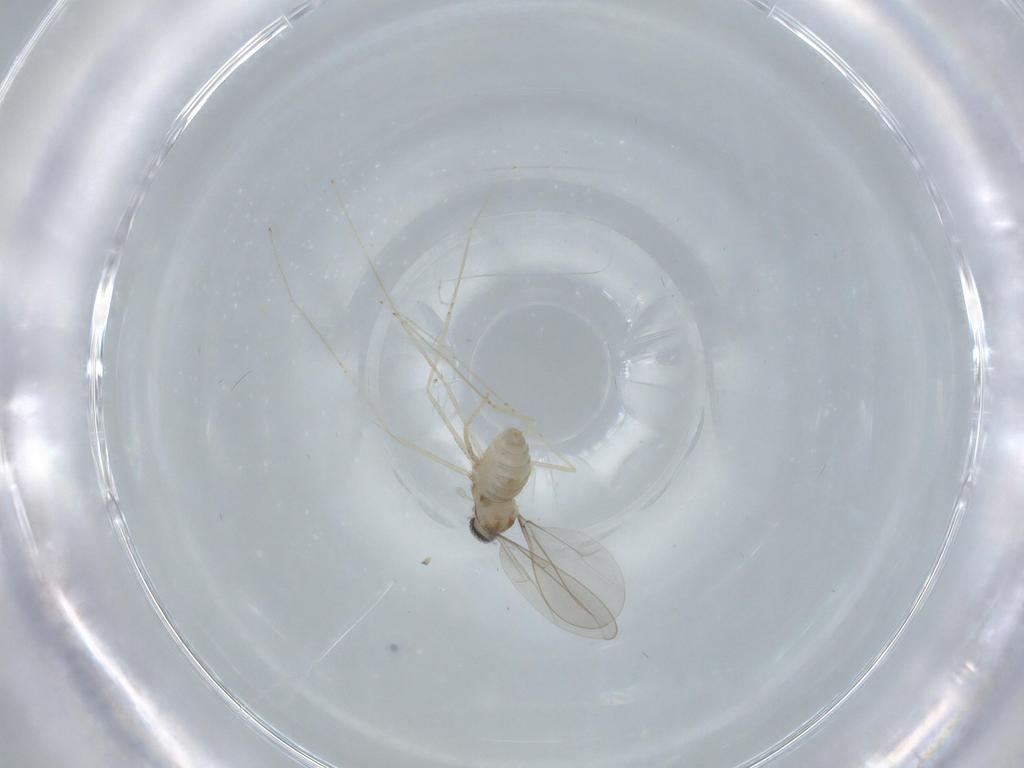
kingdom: Animalia
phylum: Arthropoda
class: Insecta
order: Diptera
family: Cecidomyiidae
